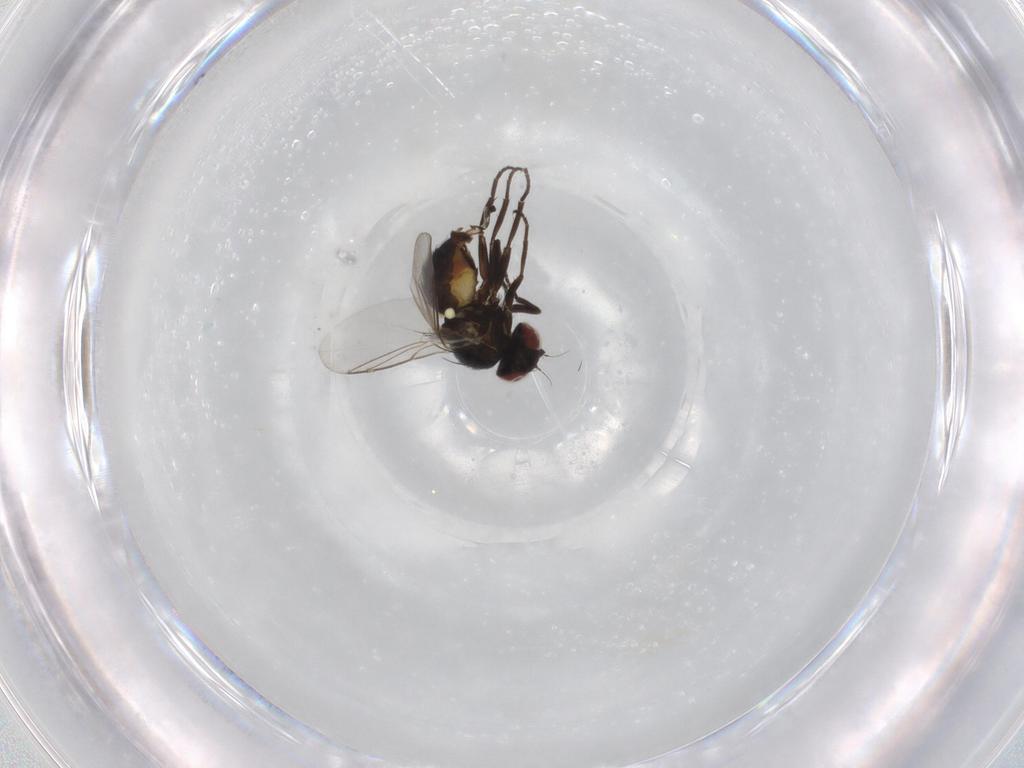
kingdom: Animalia
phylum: Arthropoda
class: Insecta
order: Diptera
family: Agromyzidae
